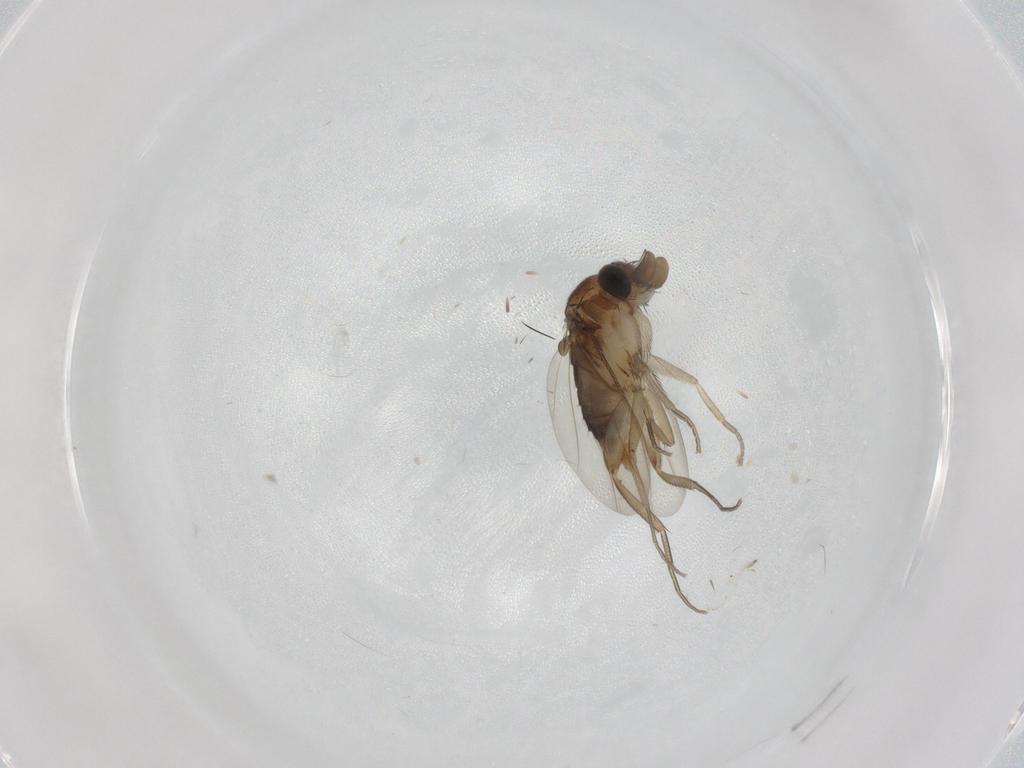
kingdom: Animalia
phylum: Arthropoda
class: Insecta
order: Diptera
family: Phoridae
